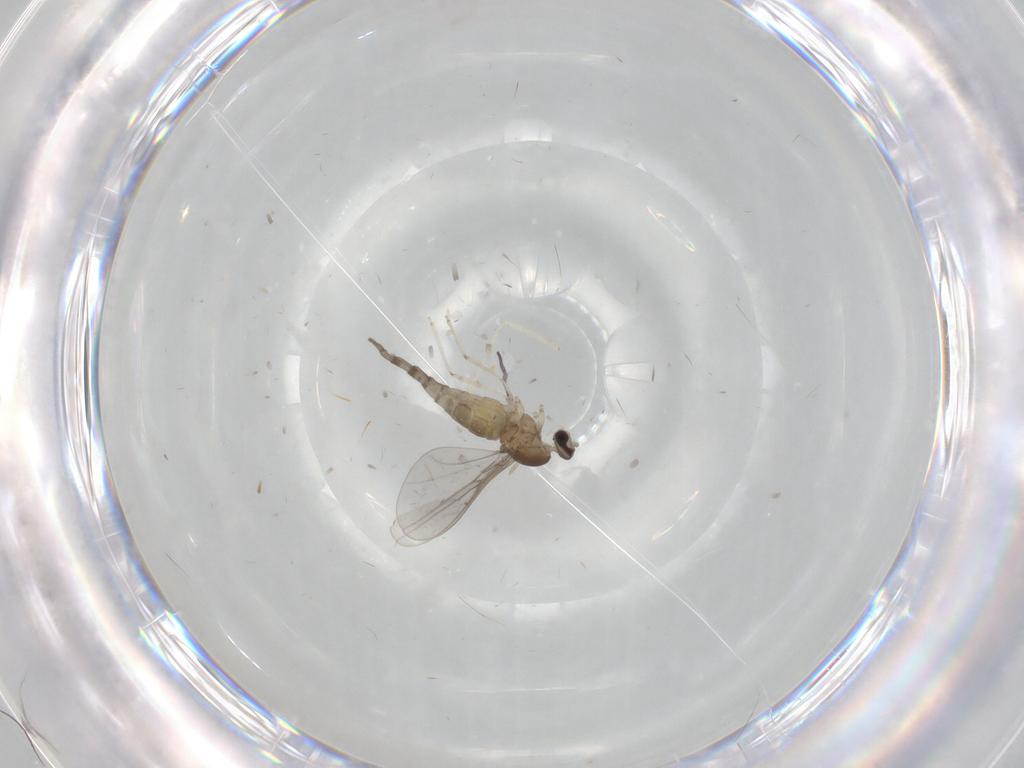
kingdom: Animalia
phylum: Arthropoda
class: Insecta
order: Diptera
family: Cecidomyiidae
